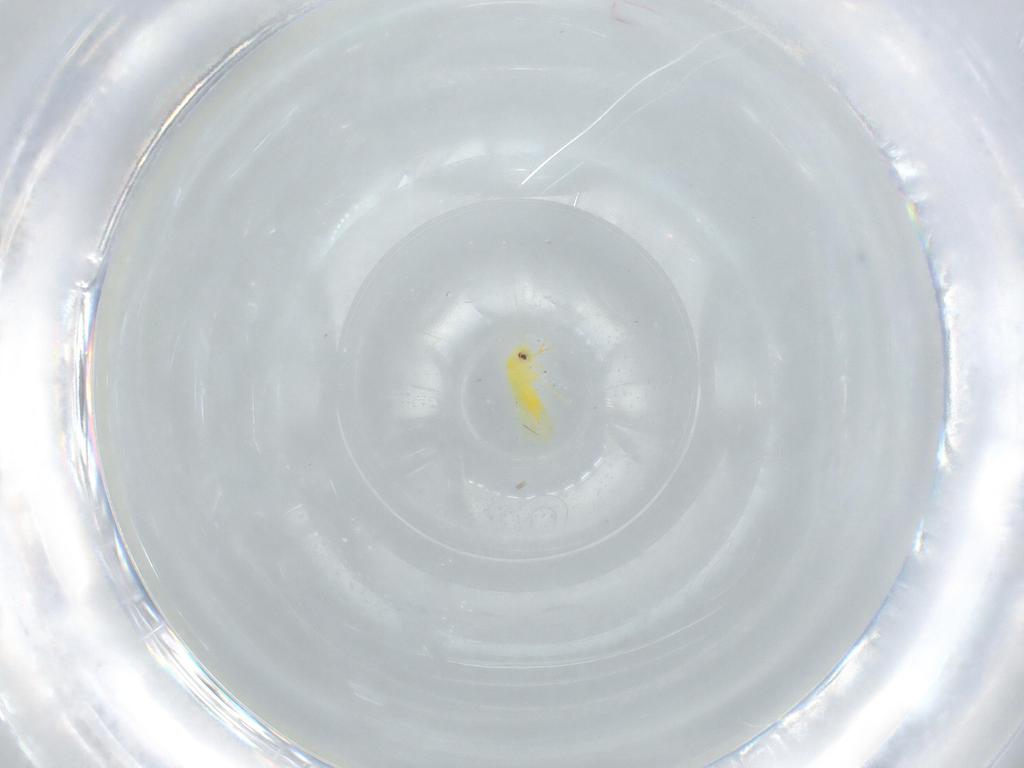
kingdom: Animalia
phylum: Arthropoda
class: Insecta
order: Hemiptera
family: Aleyrodidae
